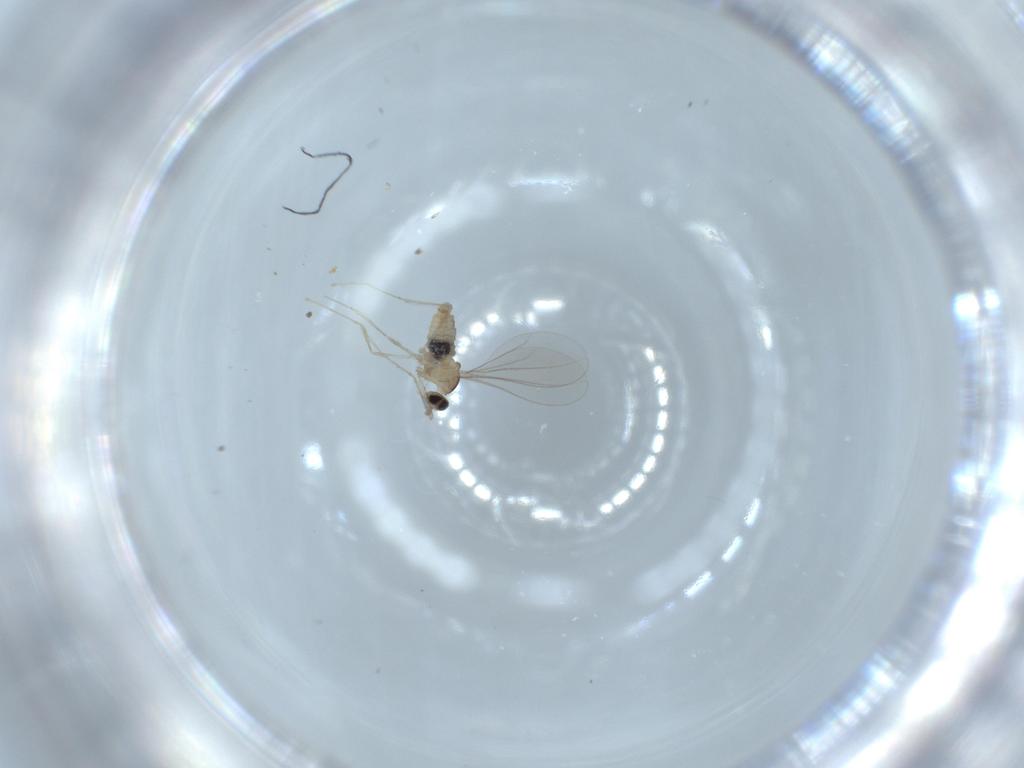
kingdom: Animalia
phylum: Arthropoda
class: Insecta
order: Diptera
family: Cecidomyiidae
